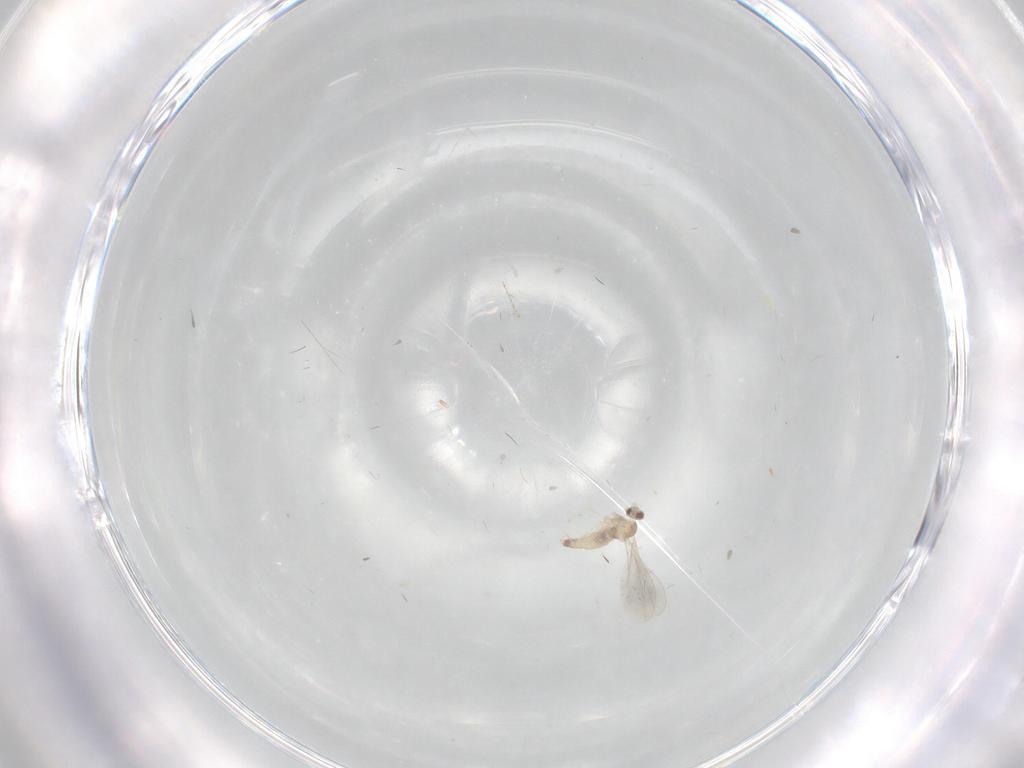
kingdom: Animalia
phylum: Arthropoda
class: Insecta
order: Diptera
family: Cecidomyiidae
